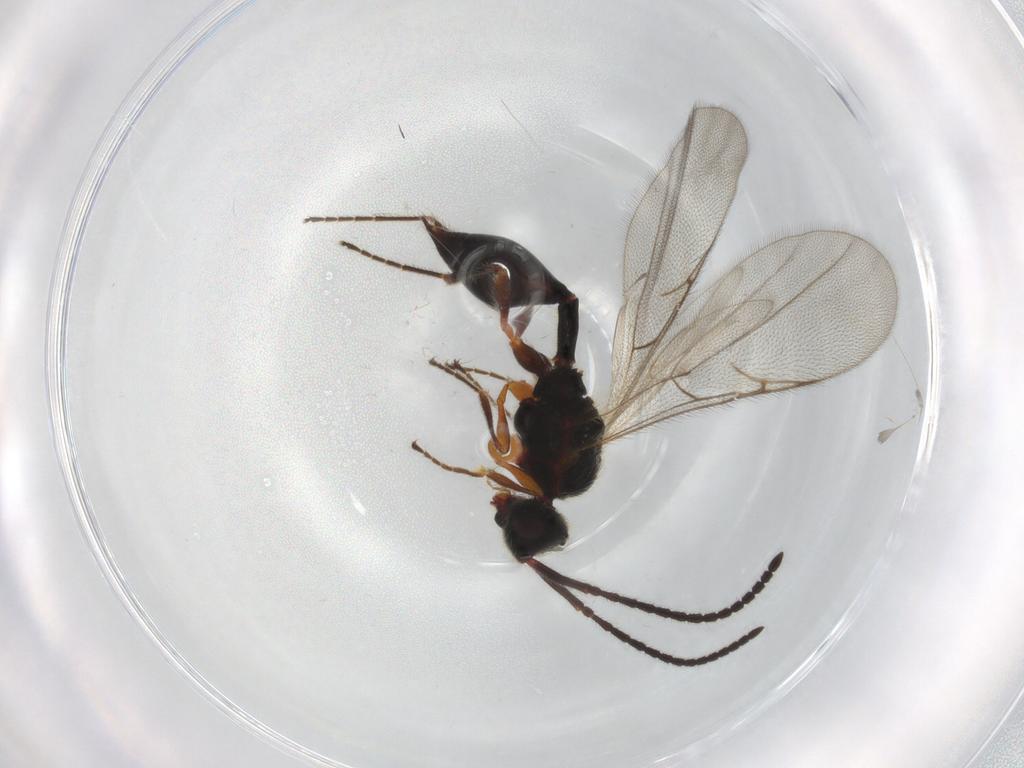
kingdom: Animalia
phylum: Arthropoda
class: Insecta
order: Hymenoptera
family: Diapriidae
